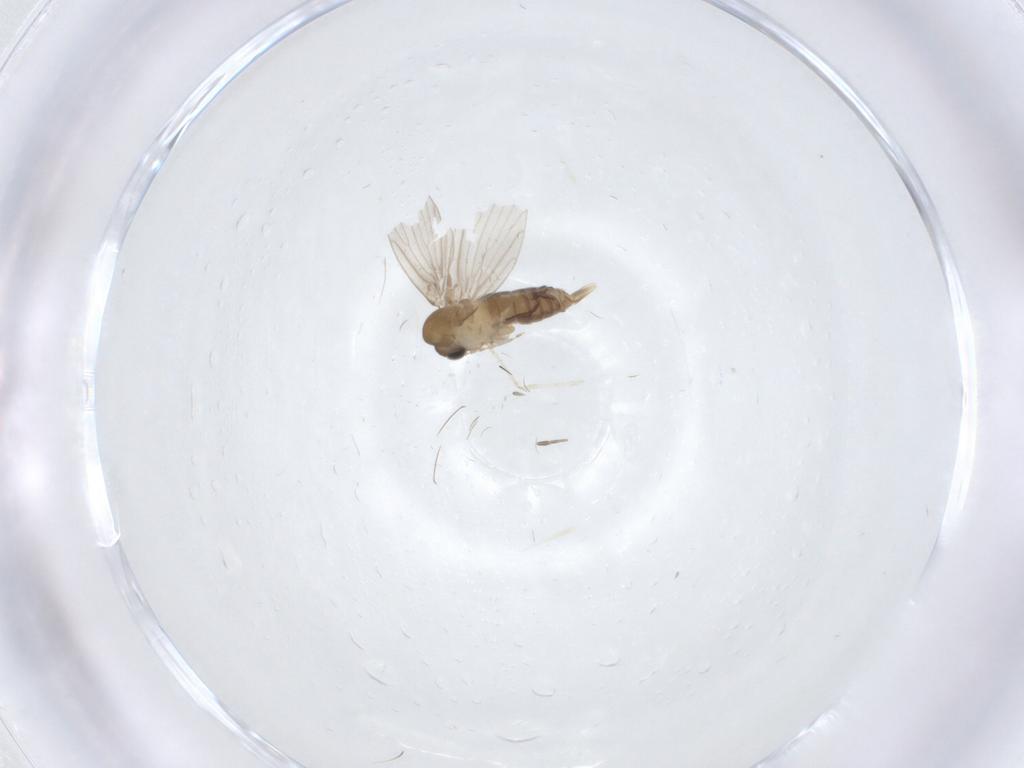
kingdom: Animalia
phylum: Arthropoda
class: Insecta
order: Diptera
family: Cecidomyiidae
